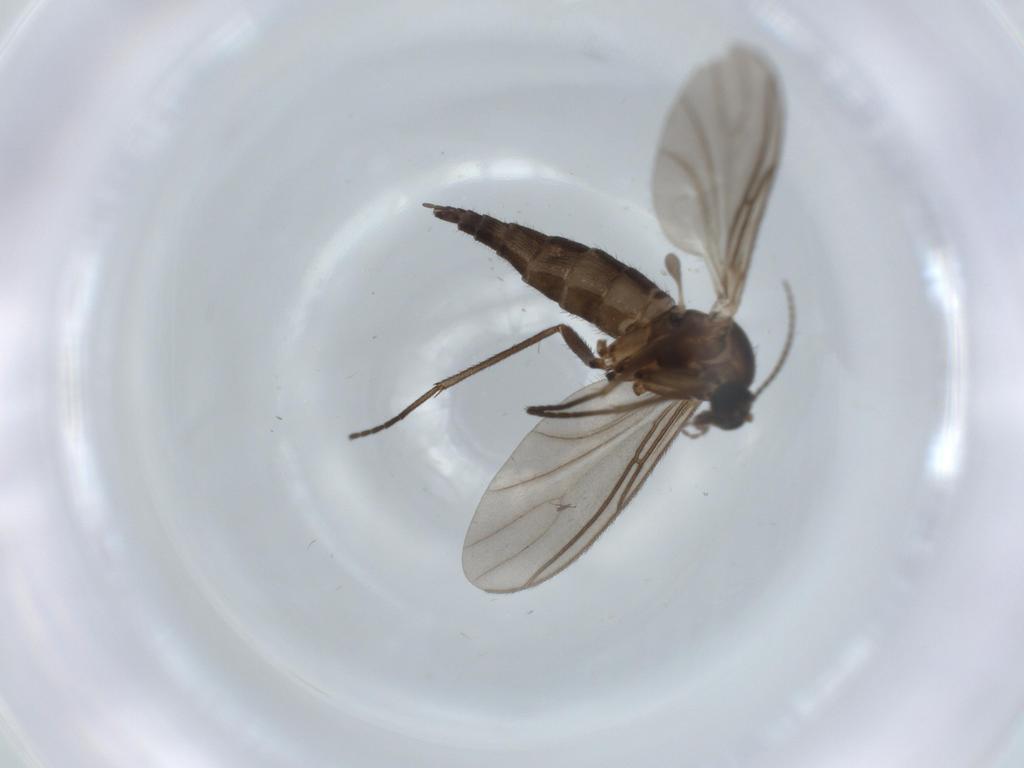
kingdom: Animalia
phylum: Arthropoda
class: Insecta
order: Diptera
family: Sciaridae
